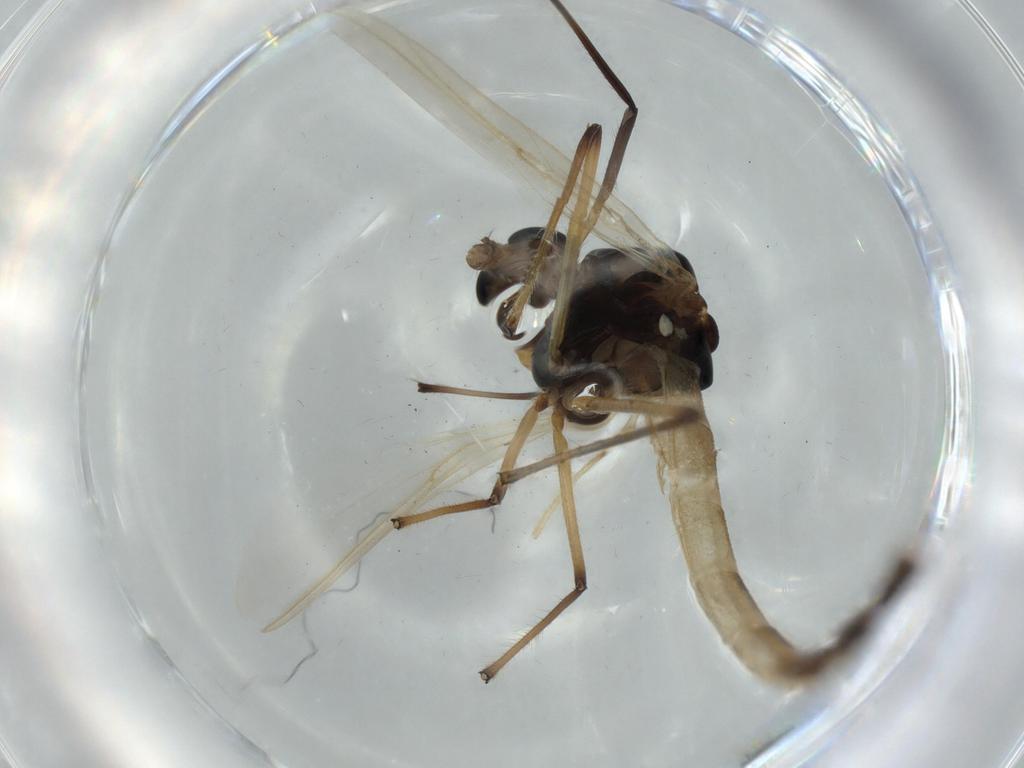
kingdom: Animalia
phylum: Arthropoda
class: Insecta
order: Diptera
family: Chironomidae
